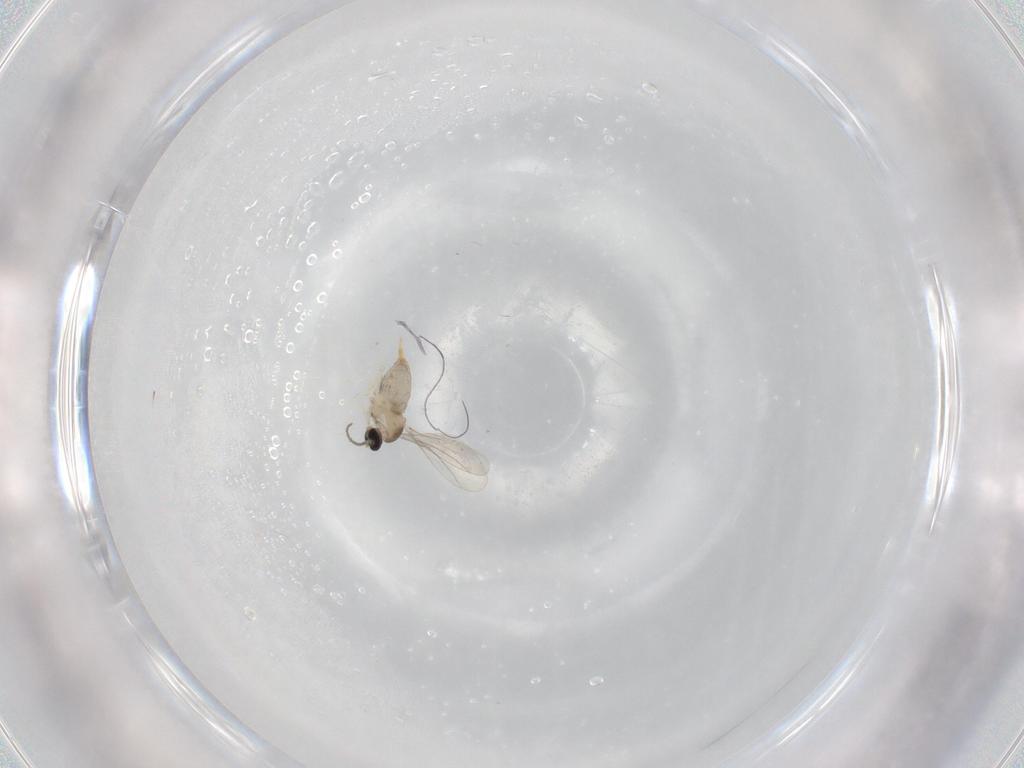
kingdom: Animalia
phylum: Arthropoda
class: Insecta
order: Diptera
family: Cecidomyiidae
